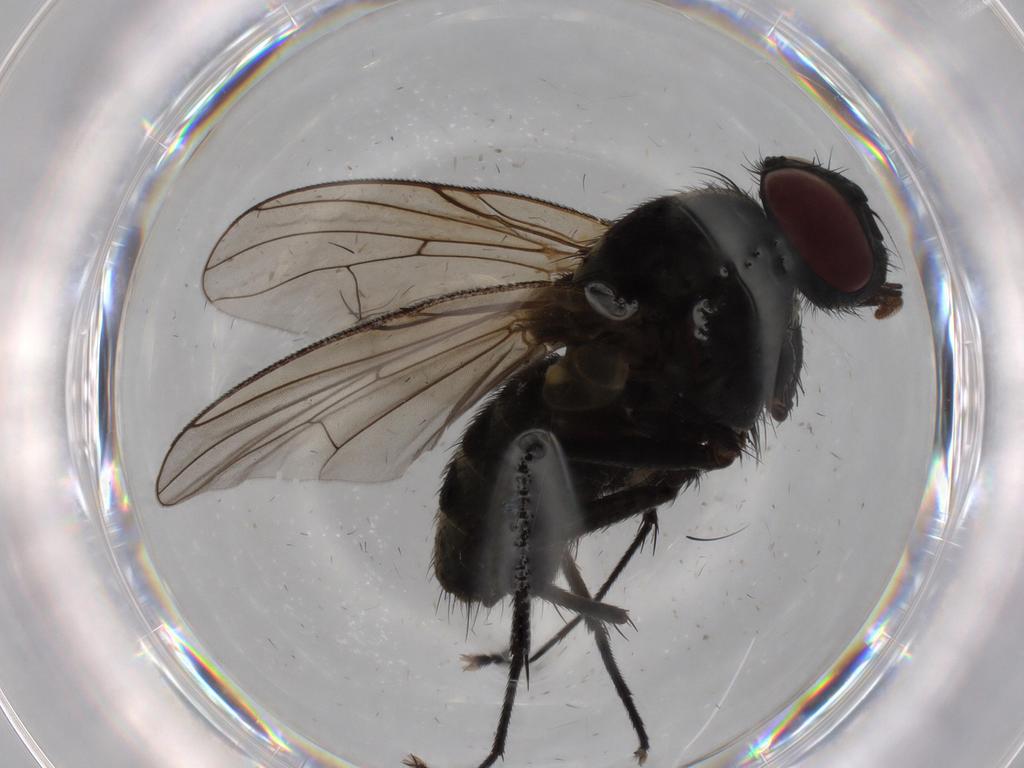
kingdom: Animalia
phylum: Arthropoda
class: Insecta
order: Diptera
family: Muscidae
